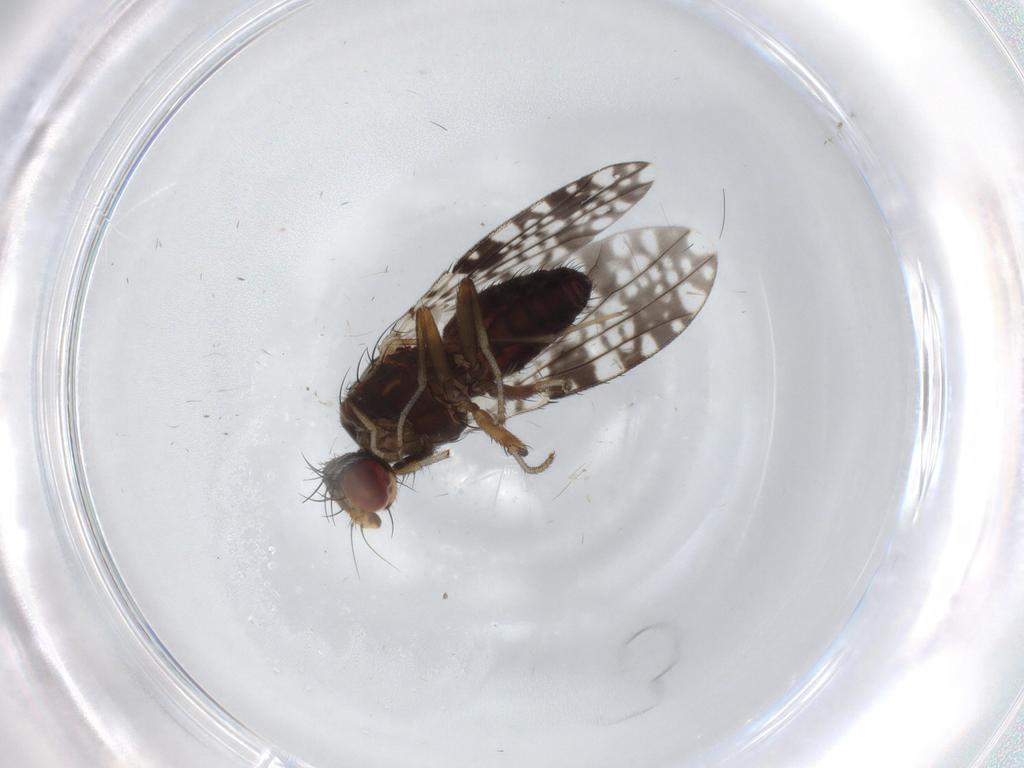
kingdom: Animalia
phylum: Arthropoda
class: Insecta
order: Diptera
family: Tephritidae
